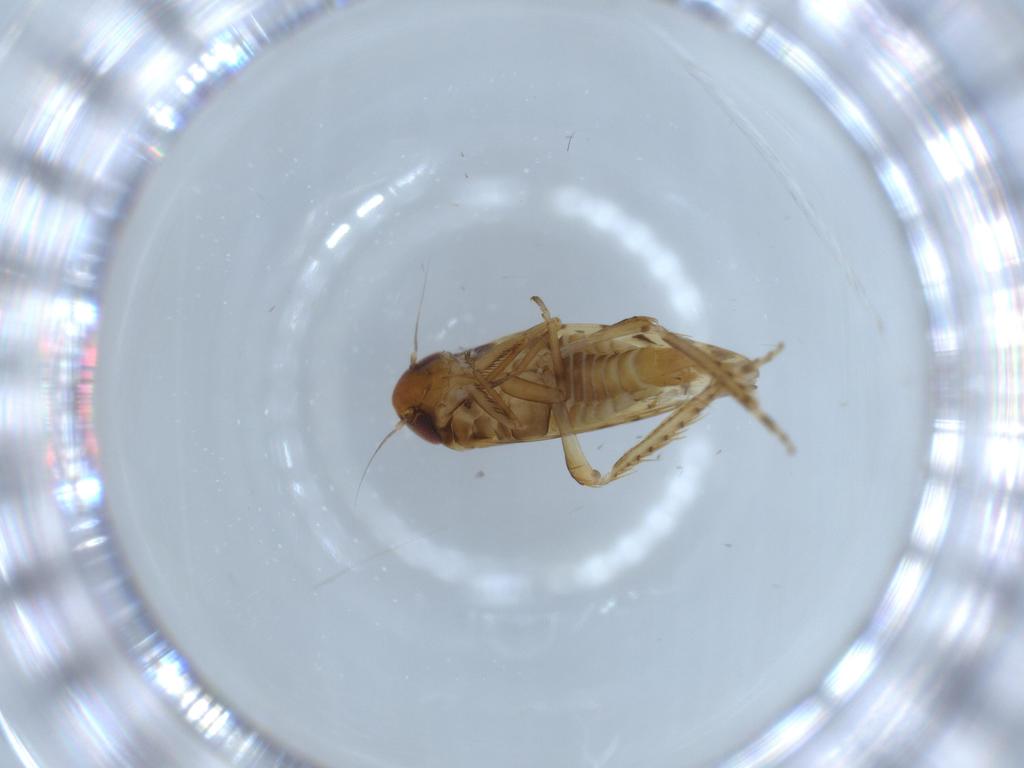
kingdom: Animalia
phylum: Arthropoda
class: Insecta
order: Hemiptera
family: Cicadellidae
